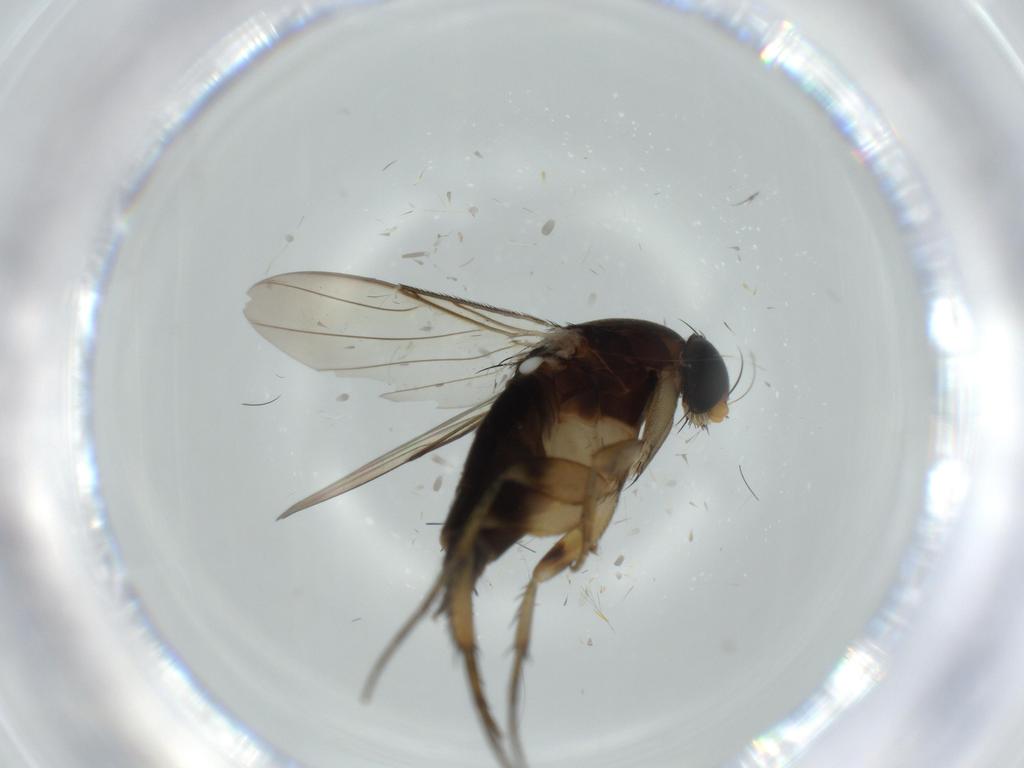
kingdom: Animalia
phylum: Arthropoda
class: Insecta
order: Diptera
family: Phoridae
